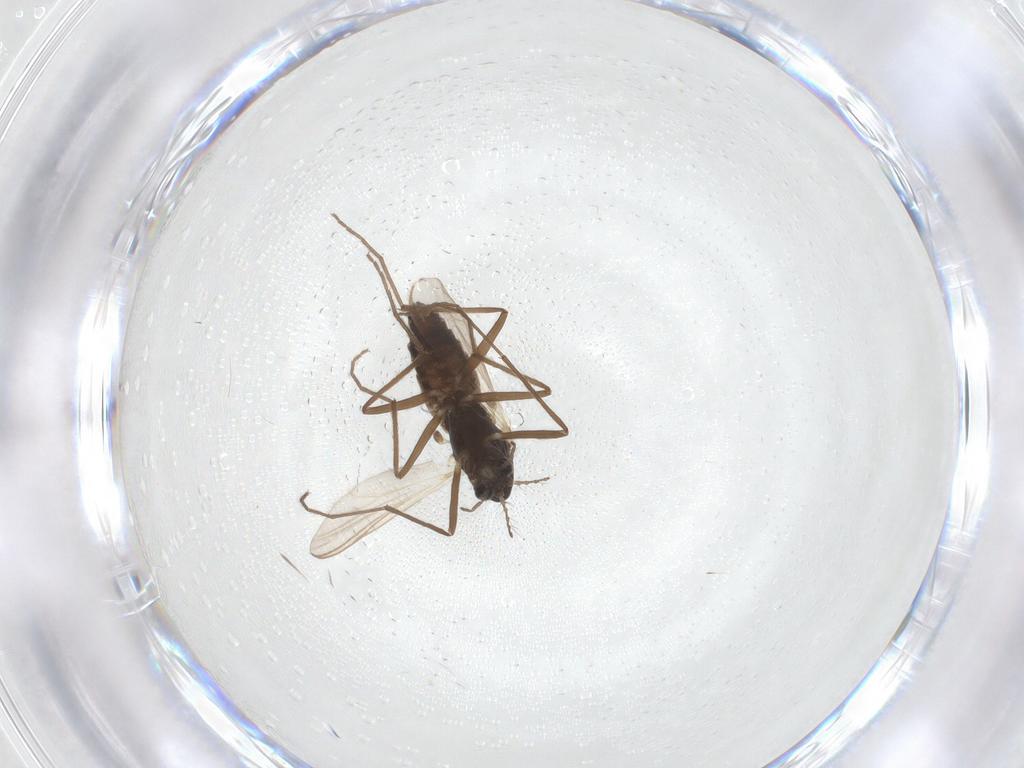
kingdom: Animalia
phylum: Arthropoda
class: Insecta
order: Diptera
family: Chironomidae
